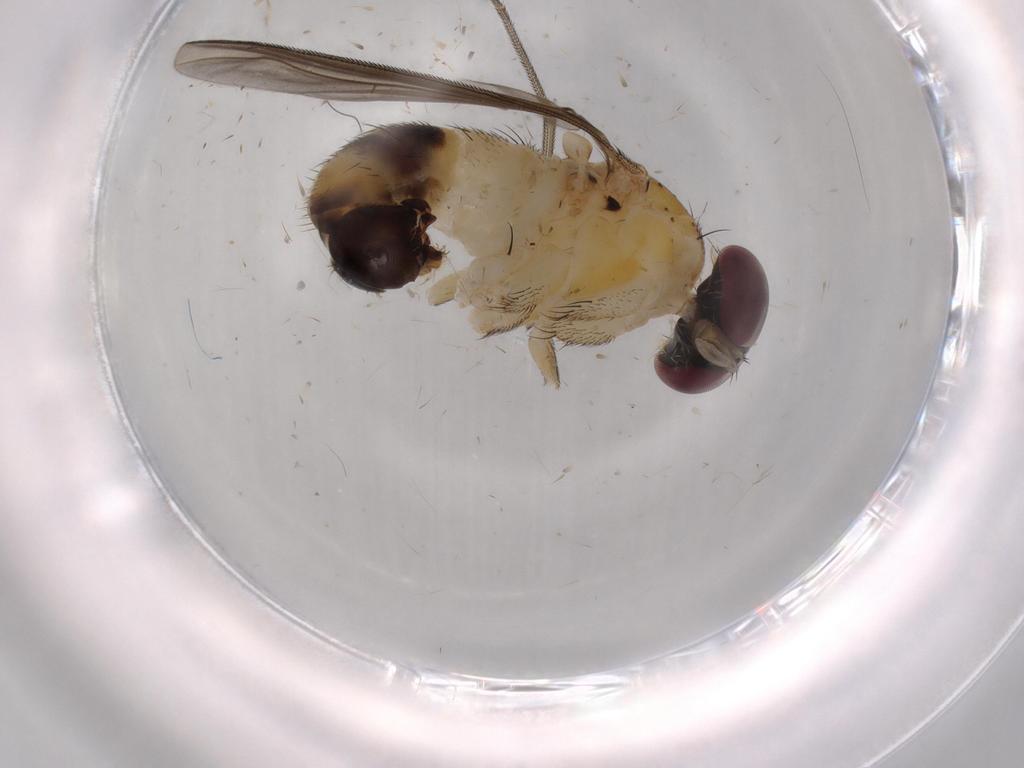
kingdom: Animalia
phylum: Arthropoda
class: Insecta
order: Diptera
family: Dolichopodidae
